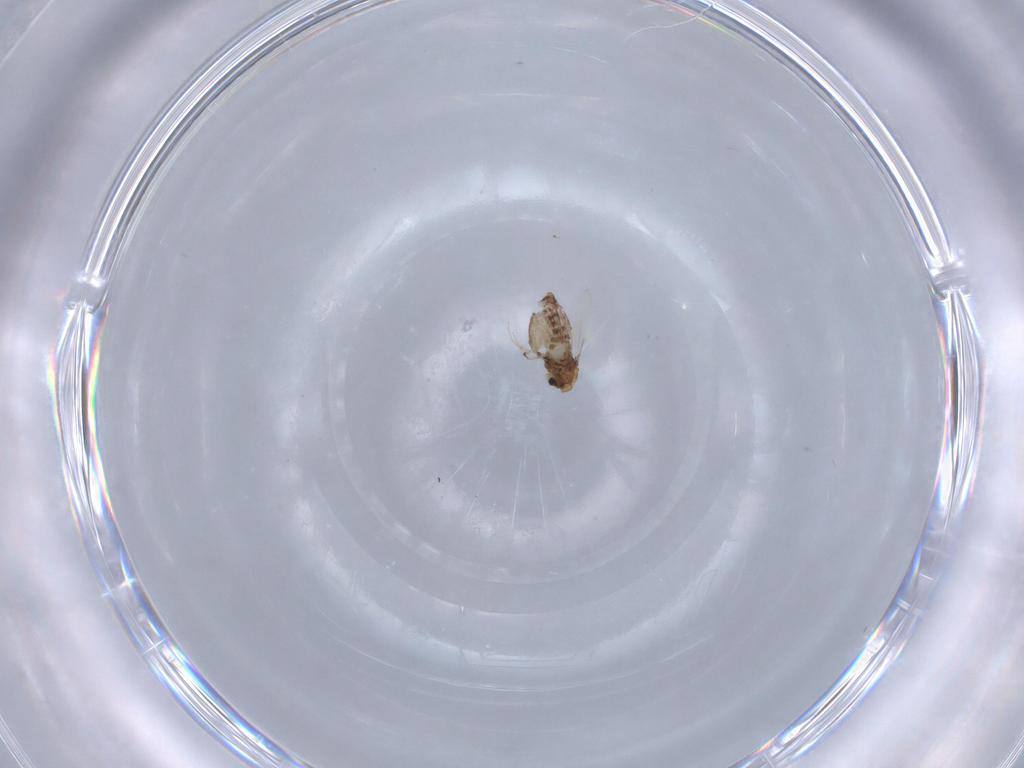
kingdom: Animalia
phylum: Arthropoda
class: Insecta
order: Diptera
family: Chironomidae
